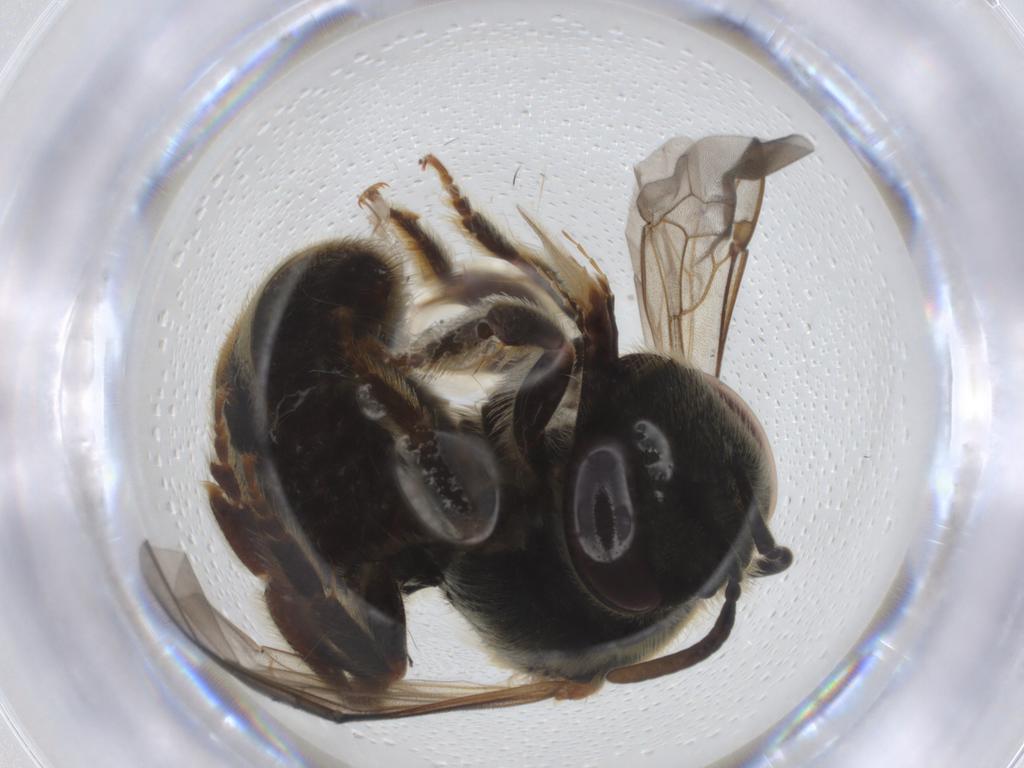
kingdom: Animalia
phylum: Arthropoda
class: Insecta
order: Hymenoptera
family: Halictidae
